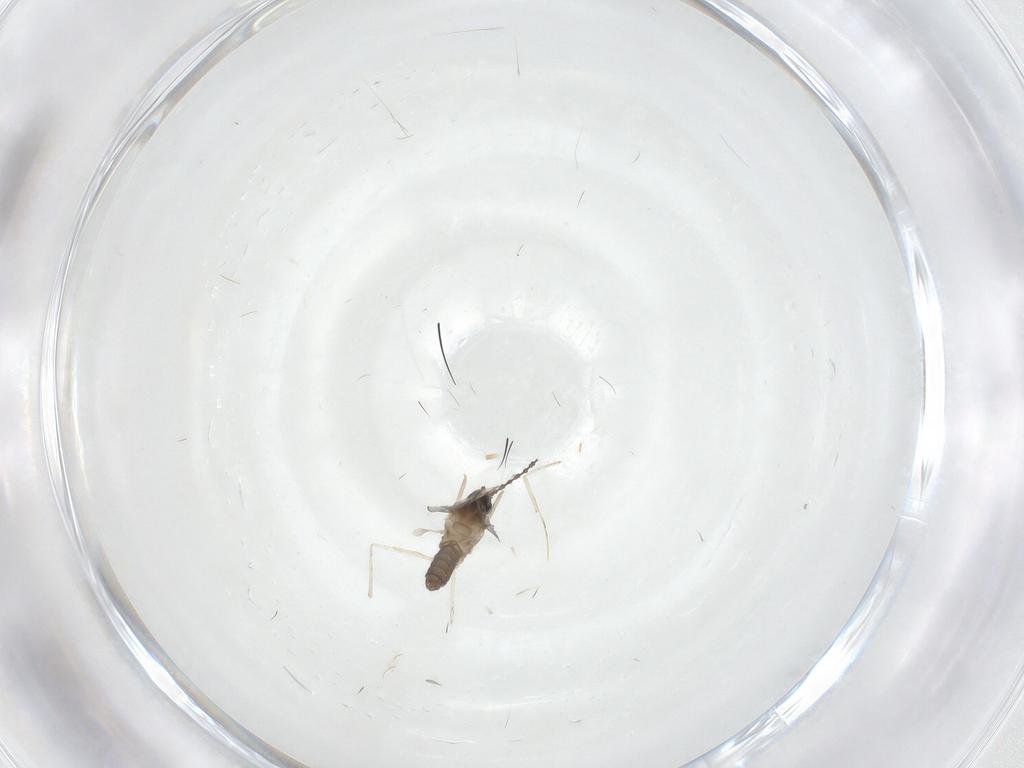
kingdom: Animalia
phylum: Arthropoda
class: Insecta
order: Diptera
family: Cecidomyiidae
